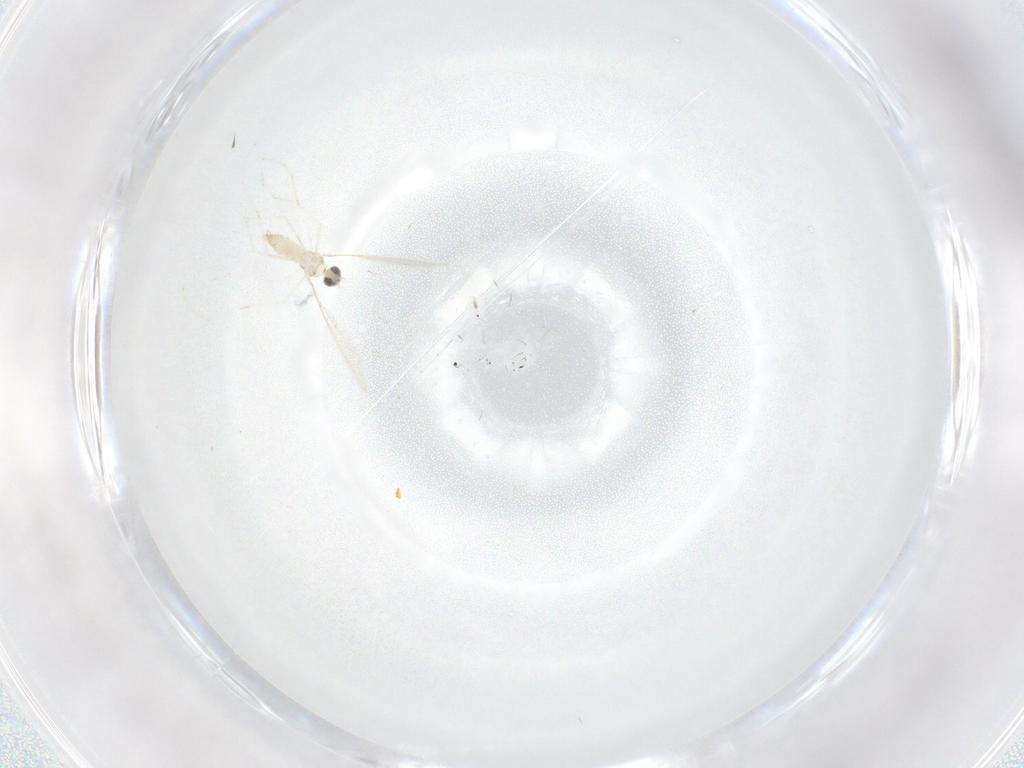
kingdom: Animalia
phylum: Arthropoda
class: Insecta
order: Diptera
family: Cecidomyiidae
